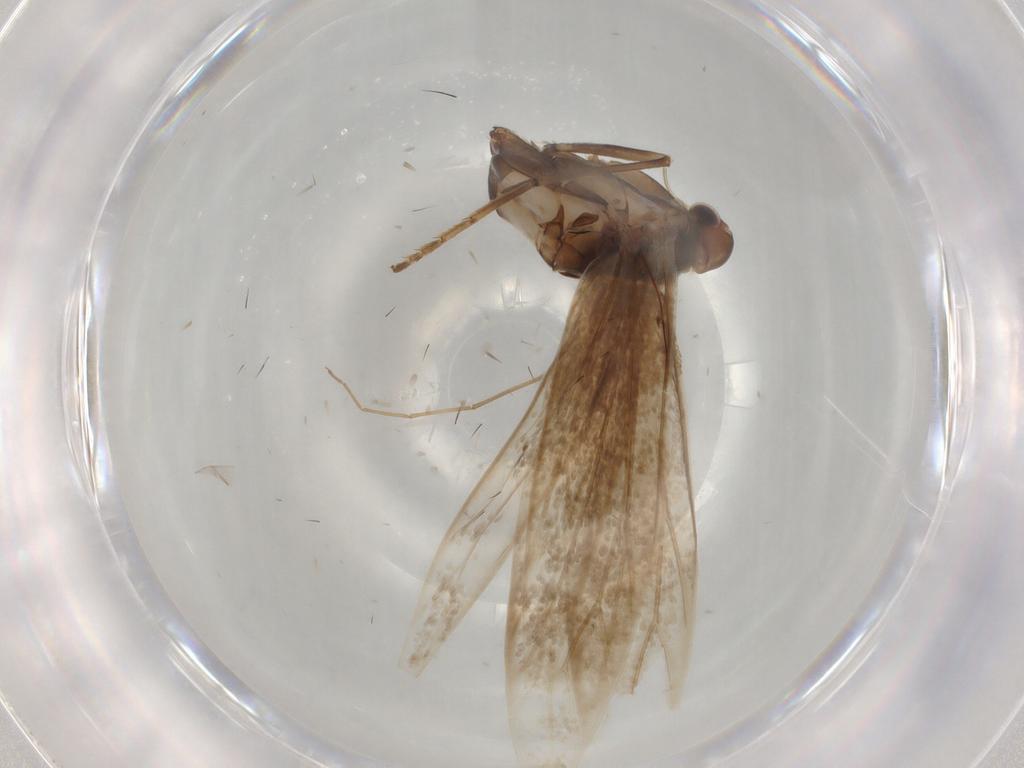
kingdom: Animalia
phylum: Arthropoda
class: Insecta
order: Lepidoptera
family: Coleophoridae
